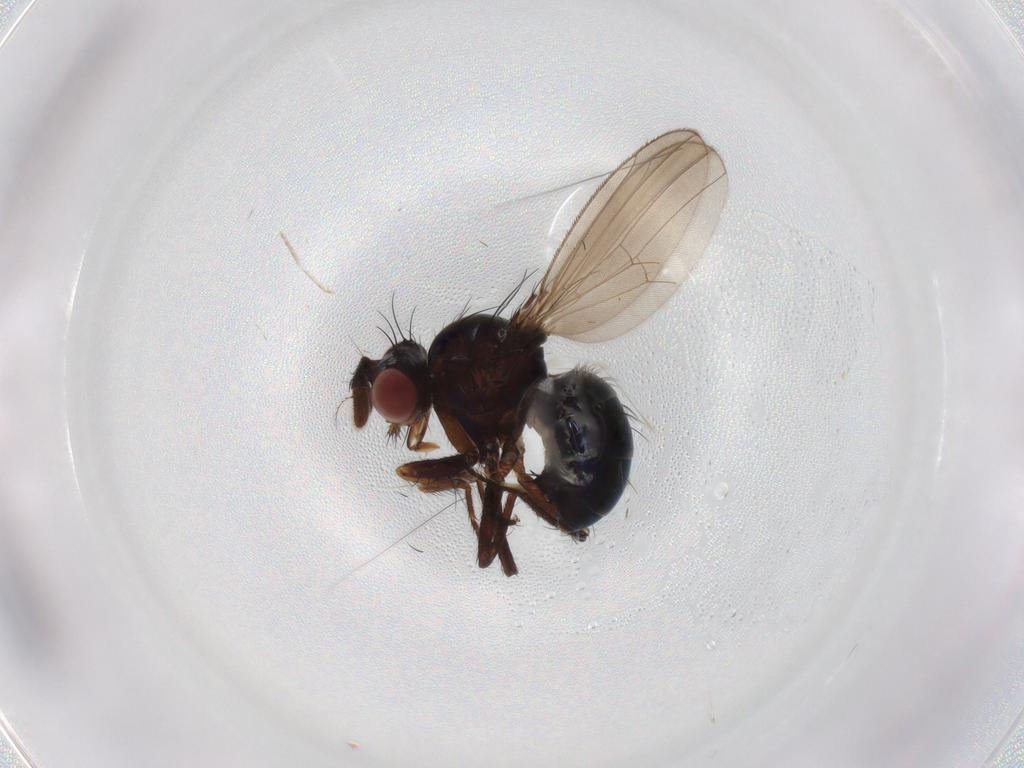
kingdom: Animalia
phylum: Arthropoda
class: Insecta
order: Diptera
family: Ephydridae
